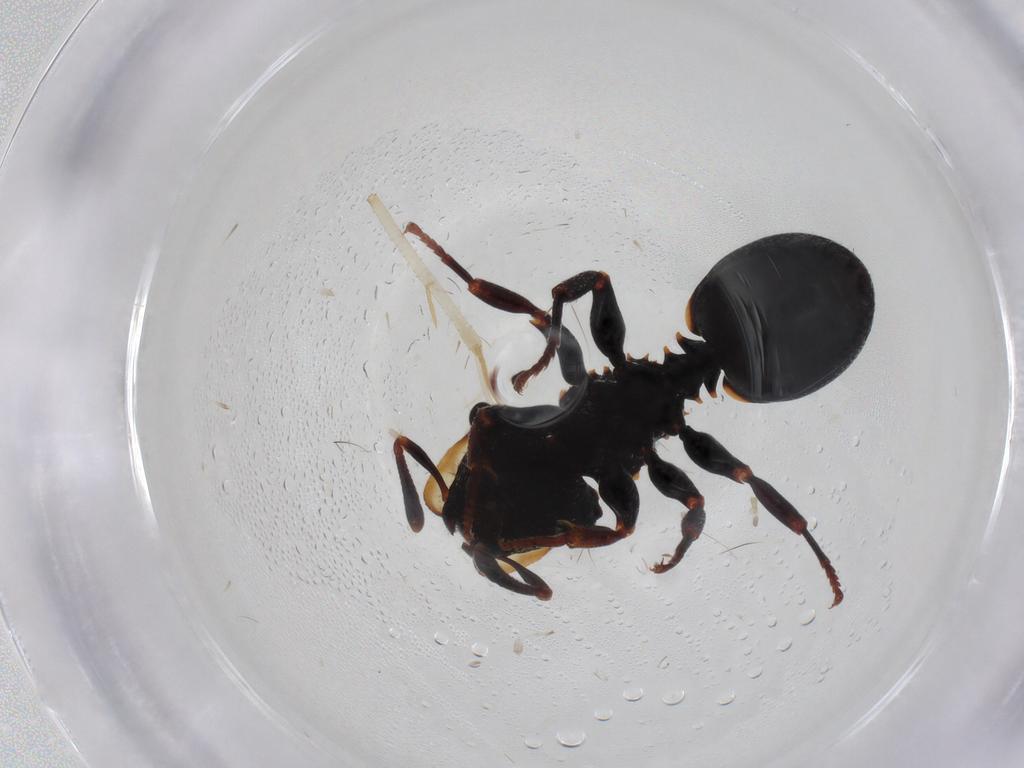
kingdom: Animalia
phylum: Arthropoda
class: Insecta
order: Hymenoptera
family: Formicidae
